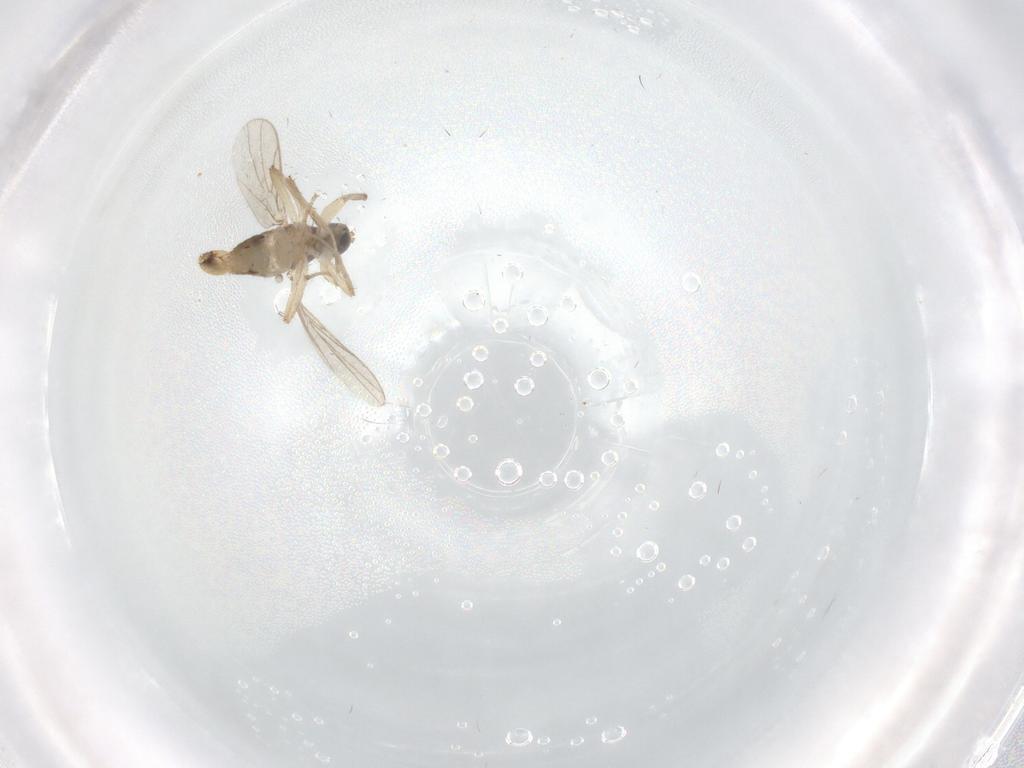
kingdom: Animalia
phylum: Arthropoda
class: Insecta
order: Diptera
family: Hybotidae
